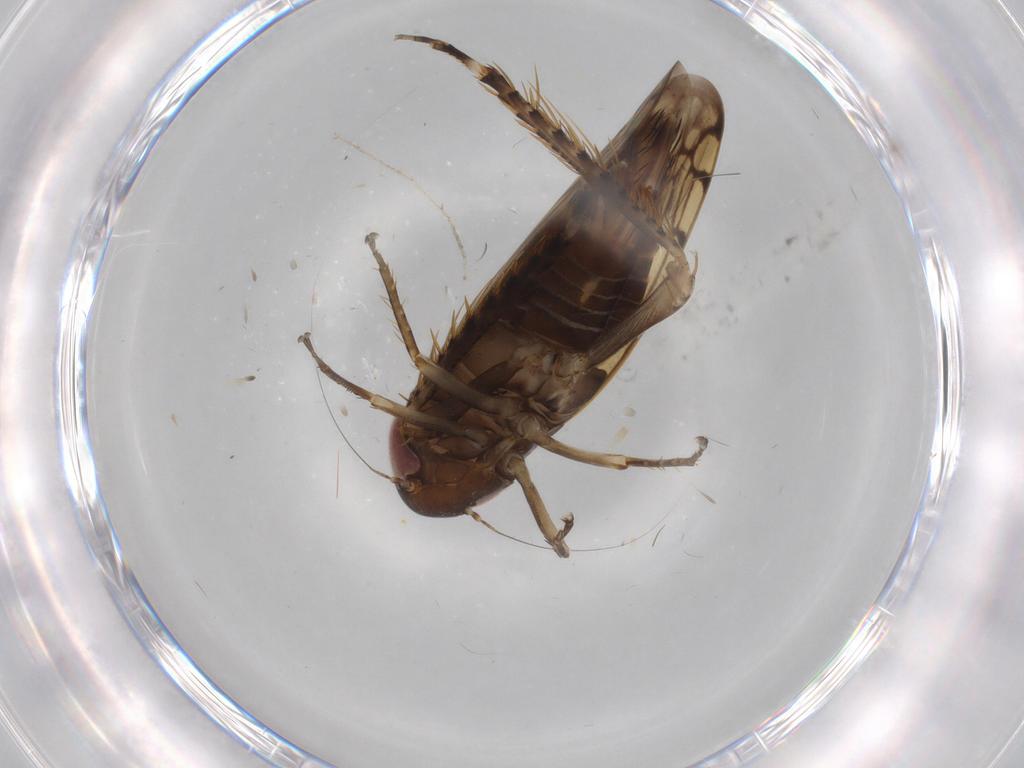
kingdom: Animalia
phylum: Arthropoda
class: Insecta
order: Hemiptera
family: Cicadellidae
